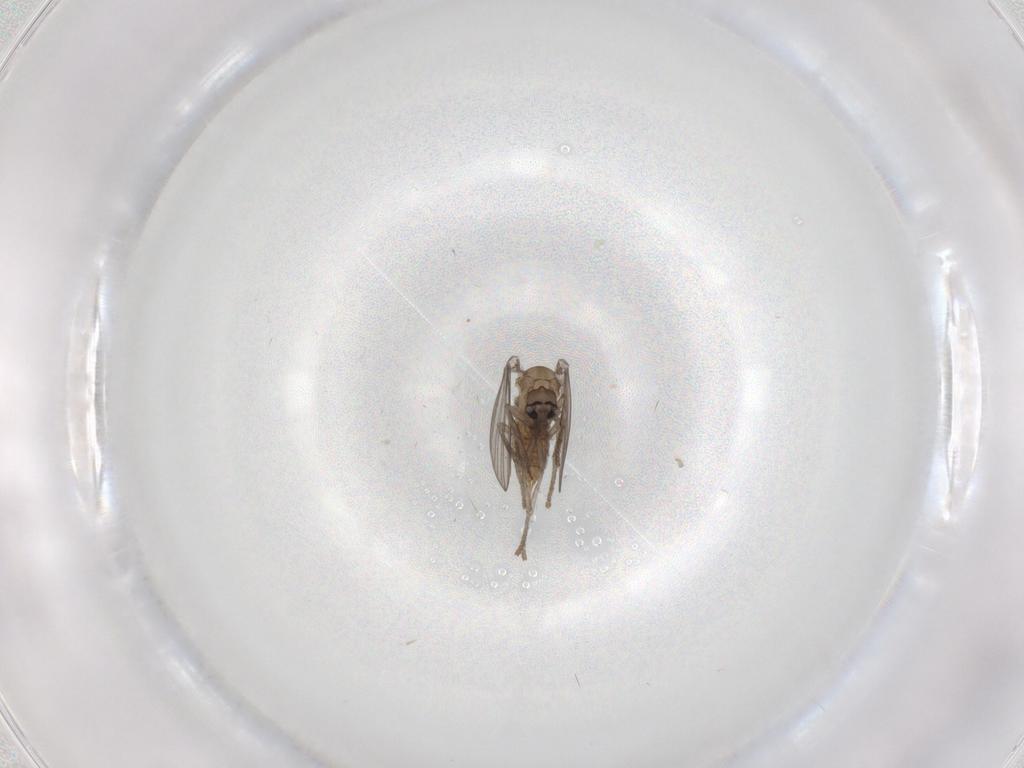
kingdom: Animalia
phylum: Arthropoda
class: Insecta
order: Diptera
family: Psychodidae
